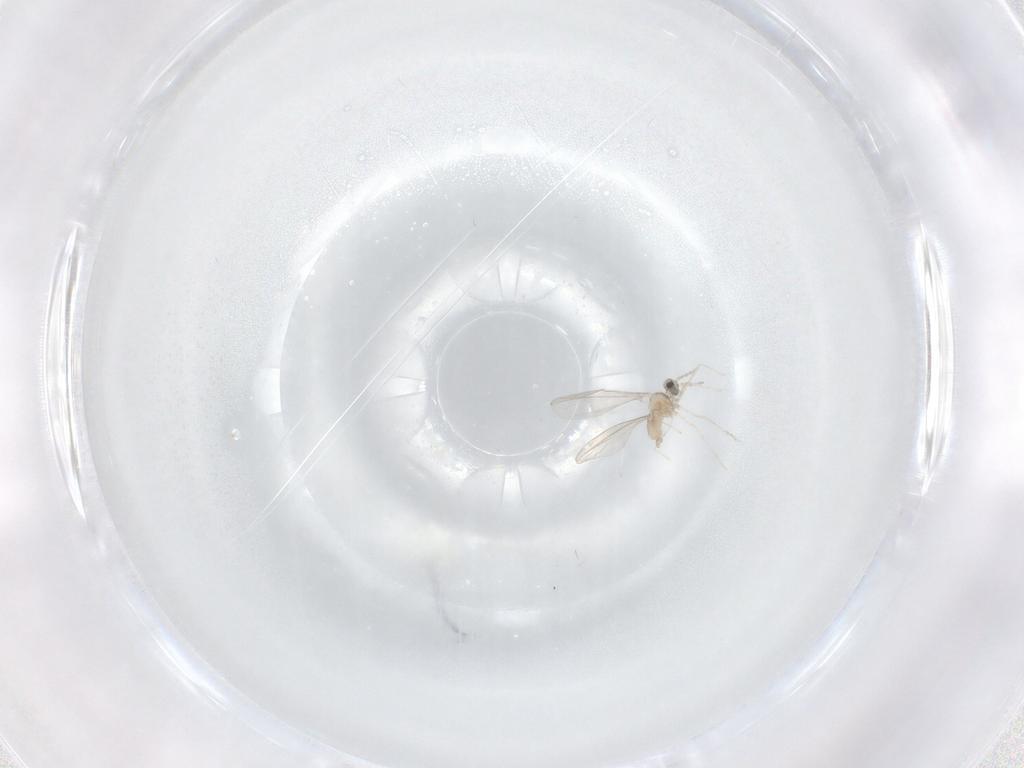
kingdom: Animalia
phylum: Arthropoda
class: Insecta
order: Diptera
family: Cecidomyiidae
